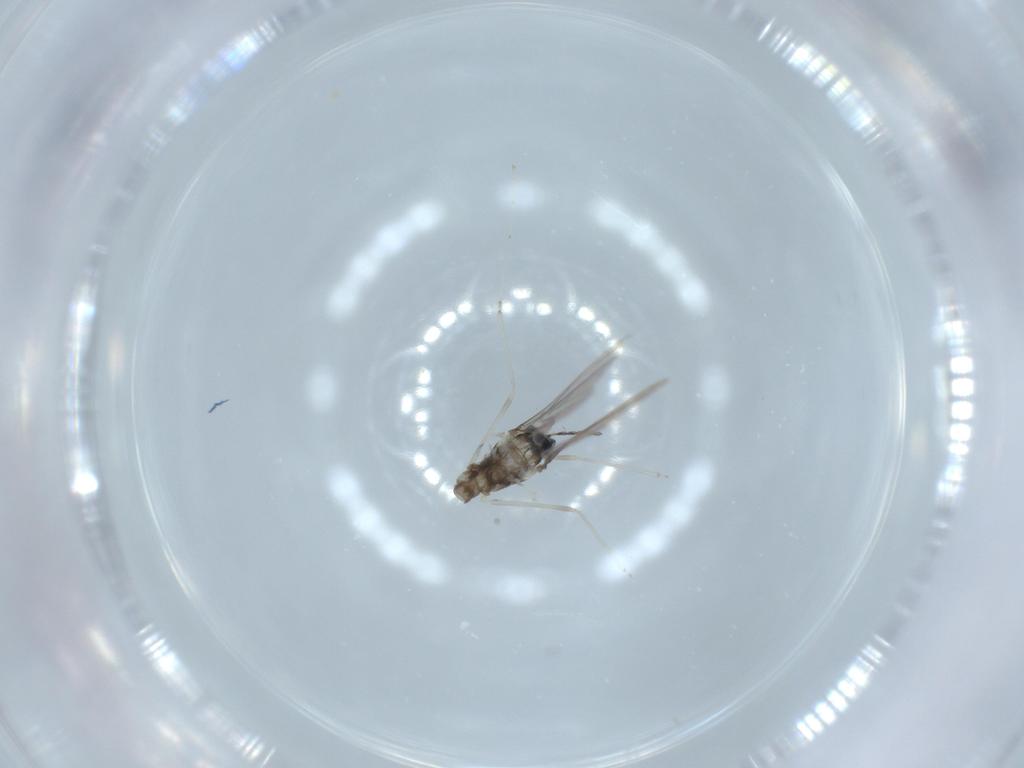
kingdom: Animalia
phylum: Arthropoda
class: Insecta
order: Diptera
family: Cecidomyiidae
